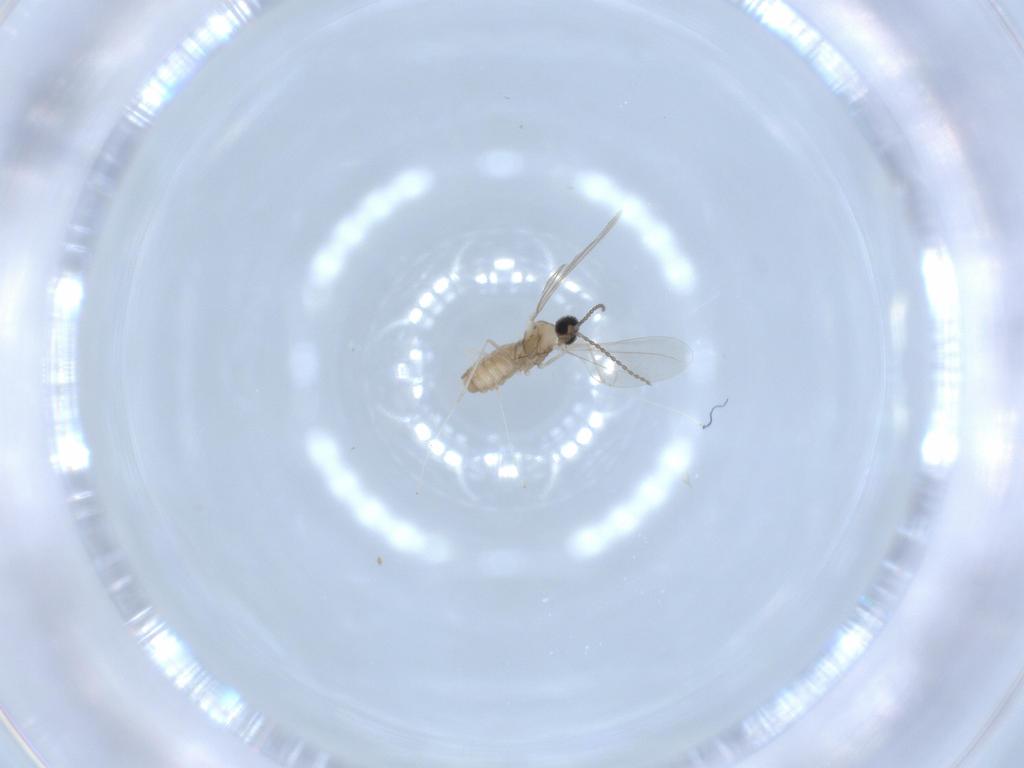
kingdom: Animalia
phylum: Arthropoda
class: Insecta
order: Diptera
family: Cecidomyiidae
